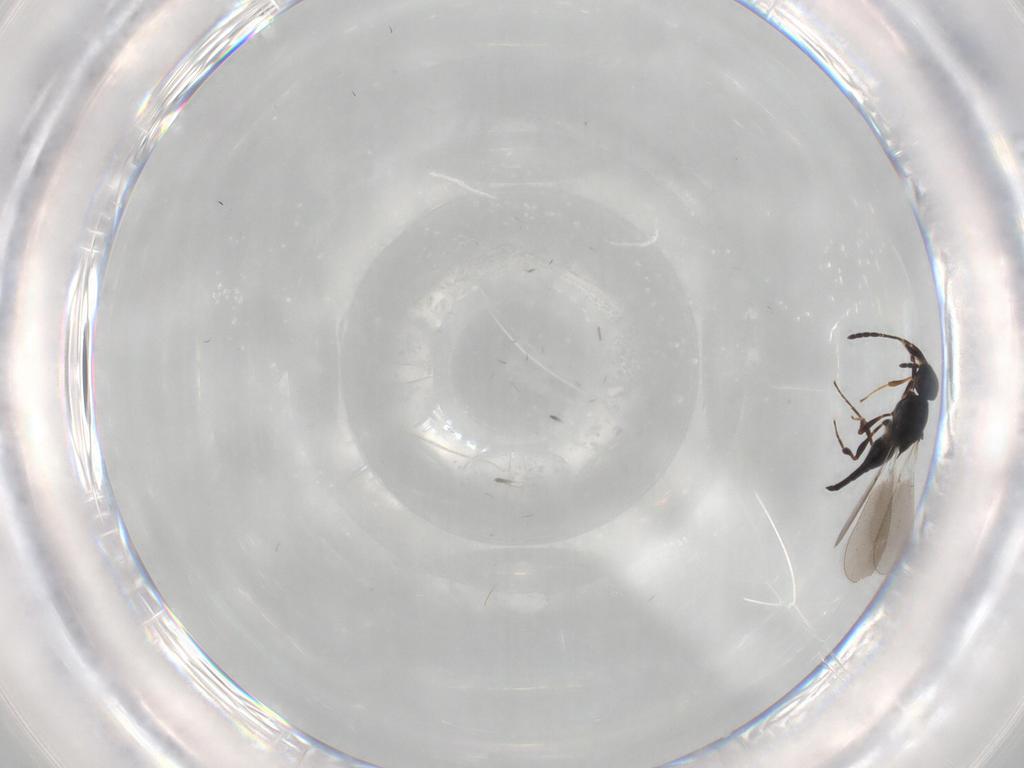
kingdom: Animalia
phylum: Arthropoda
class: Insecta
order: Hymenoptera
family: Platygastridae
